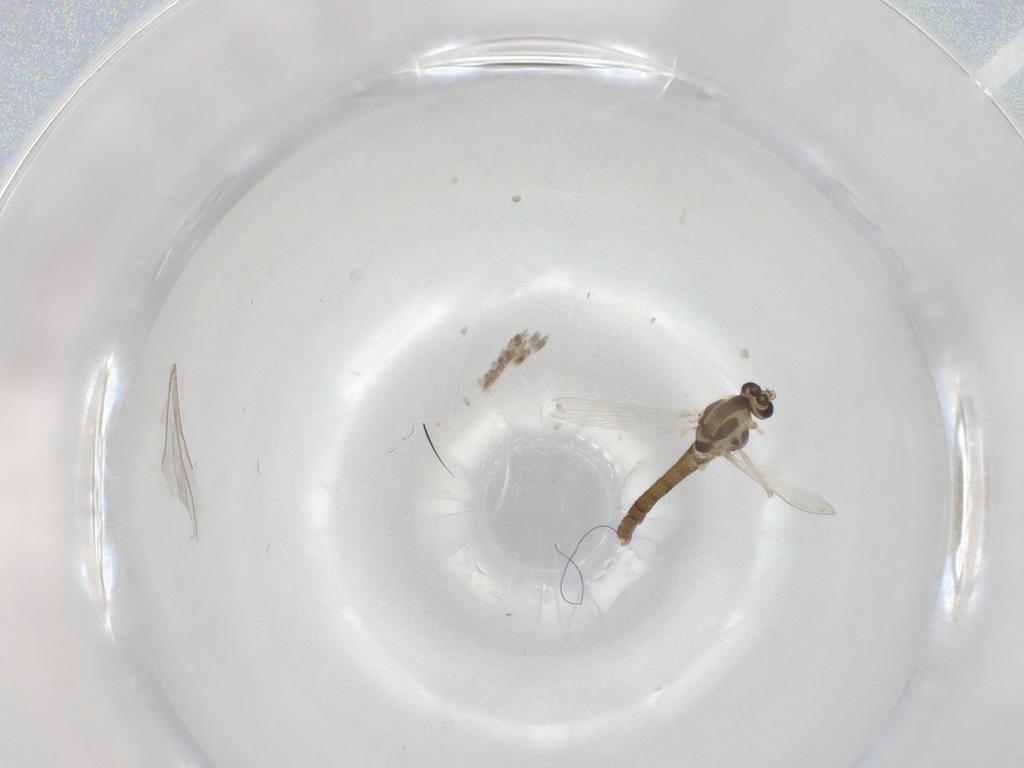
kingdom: Animalia
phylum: Arthropoda
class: Insecta
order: Diptera
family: Chironomidae
